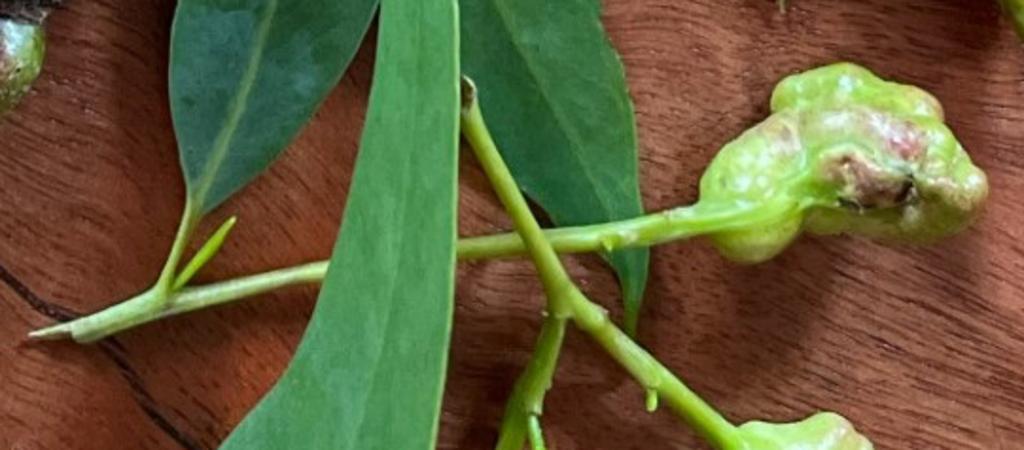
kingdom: Animalia
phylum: Arthropoda
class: Insecta
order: Diptera
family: Fergusoninidae
